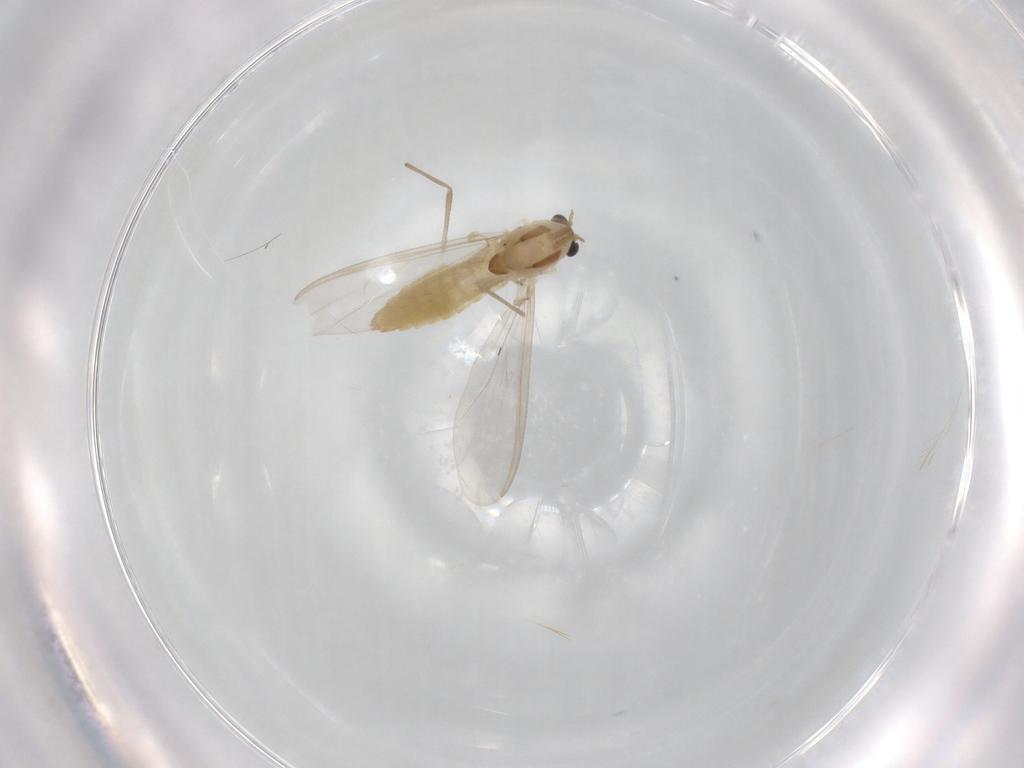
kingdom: Animalia
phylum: Arthropoda
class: Insecta
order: Diptera
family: Chironomidae
